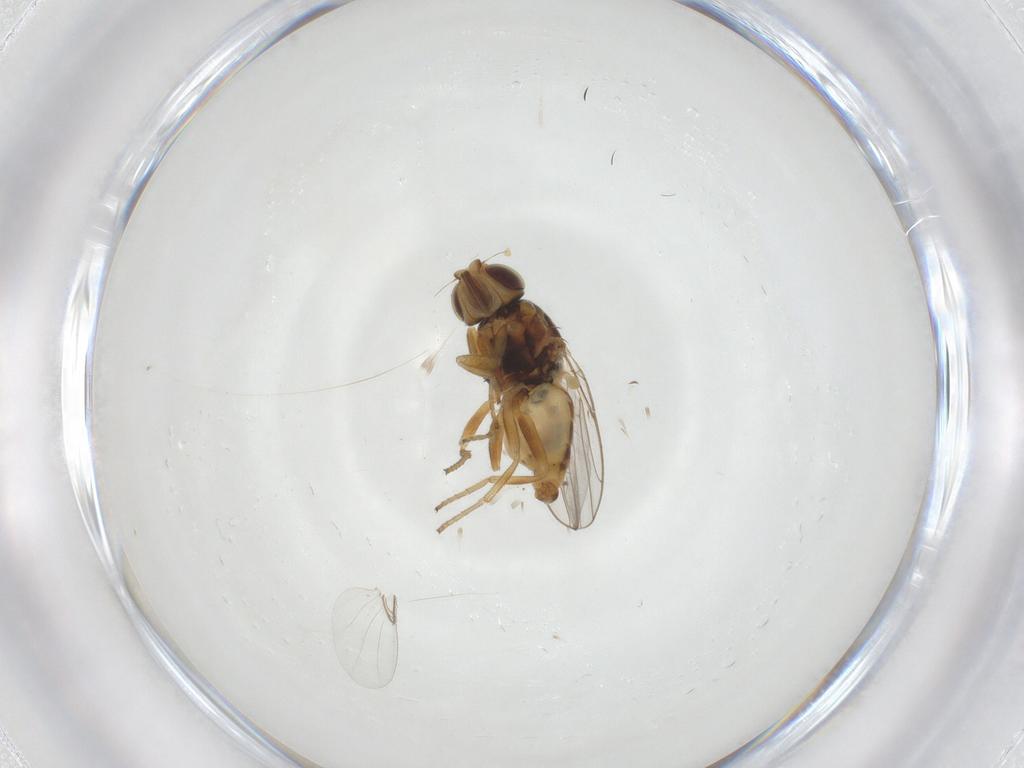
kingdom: Animalia
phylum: Arthropoda
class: Insecta
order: Diptera
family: Chloropidae
